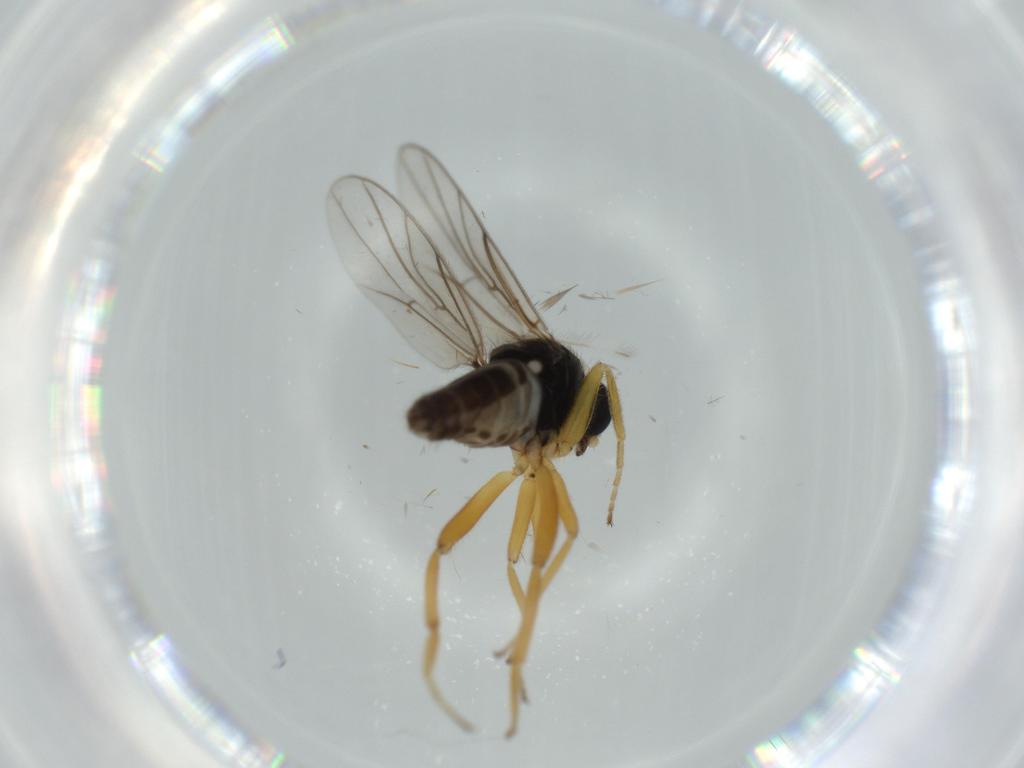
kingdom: Animalia
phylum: Arthropoda
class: Insecta
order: Diptera
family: Hybotidae
